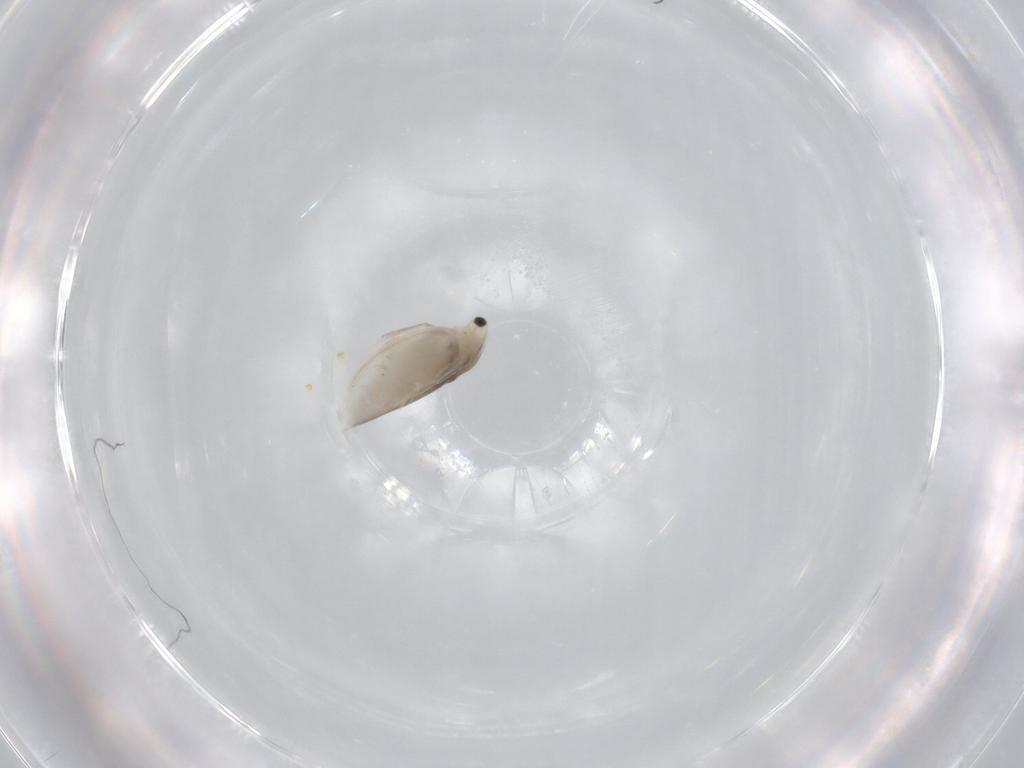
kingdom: Animalia
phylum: Arthropoda
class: Branchiopoda
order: Diplostraca
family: Daphniidae
